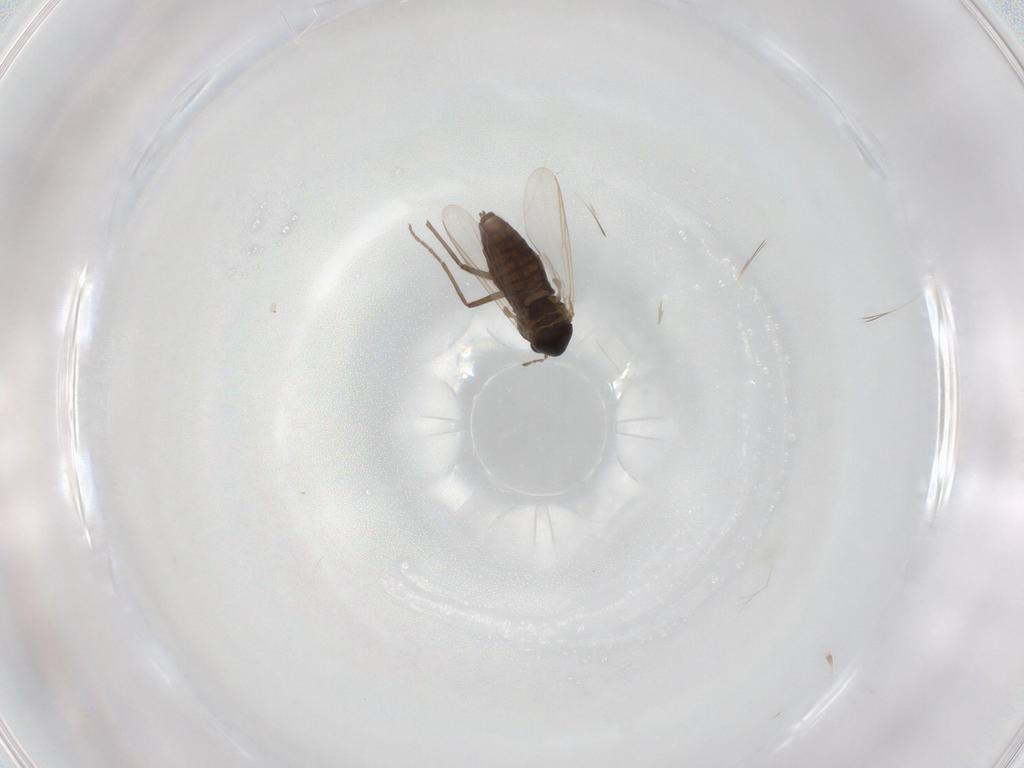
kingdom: Animalia
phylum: Arthropoda
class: Insecta
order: Diptera
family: Chironomidae
